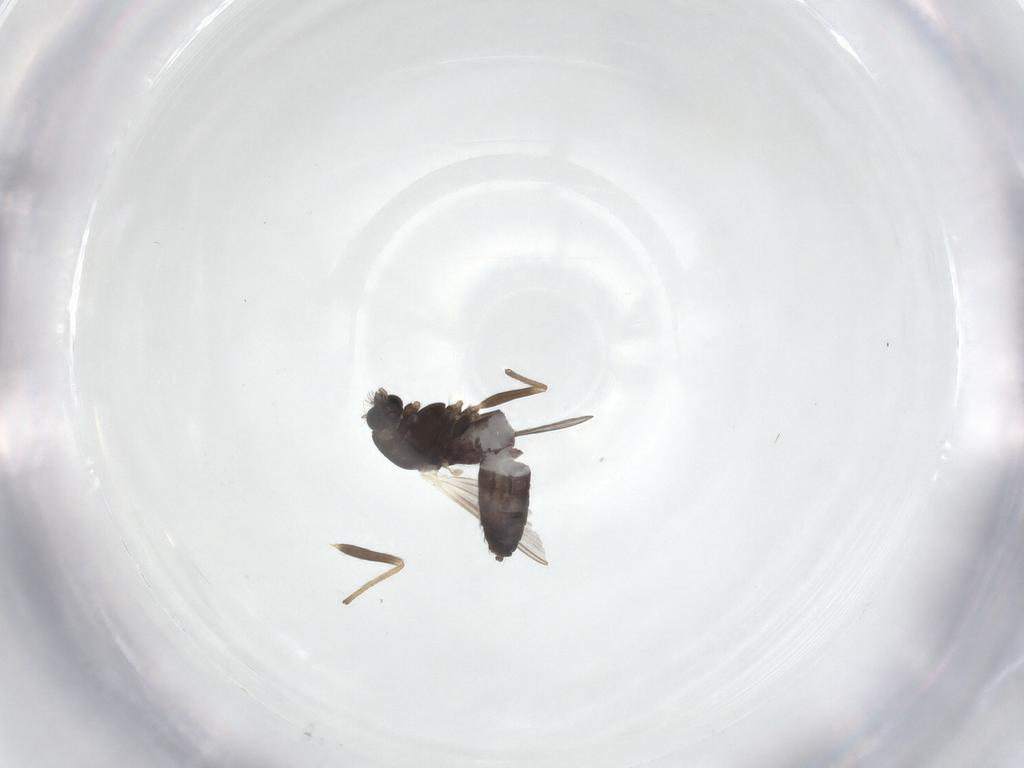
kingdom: Animalia
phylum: Arthropoda
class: Insecta
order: Diptera
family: Chironomidae
